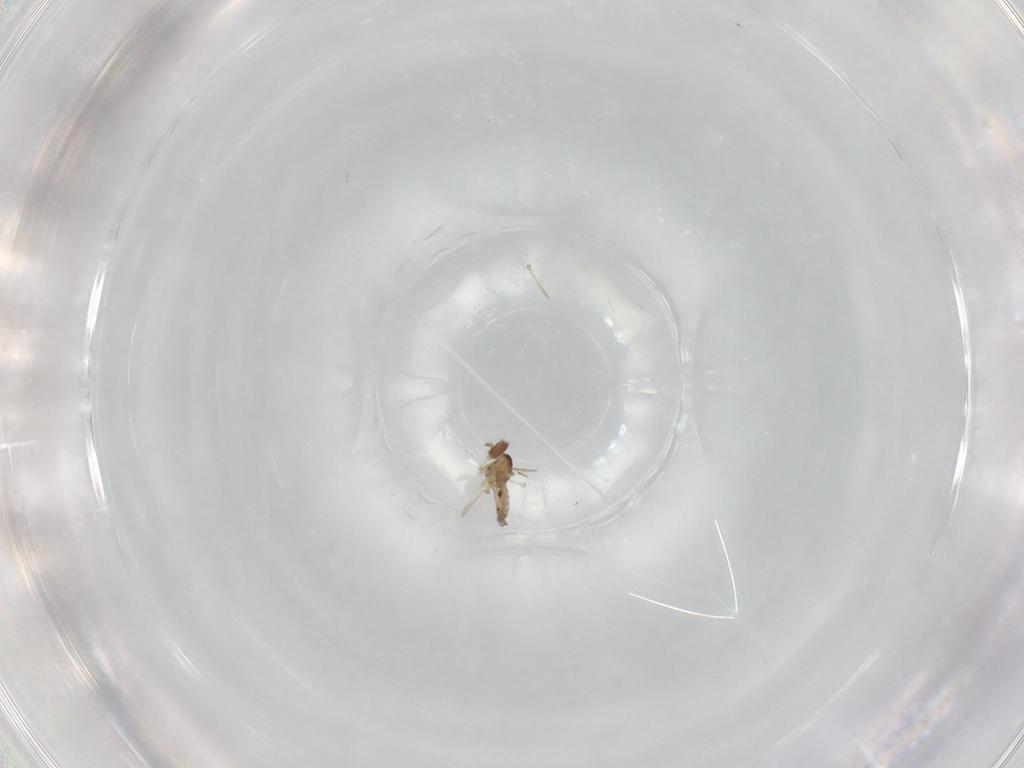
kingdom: Animalia
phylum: Arthropoda
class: Insecta
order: Diptera
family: Cecidomyiidae
